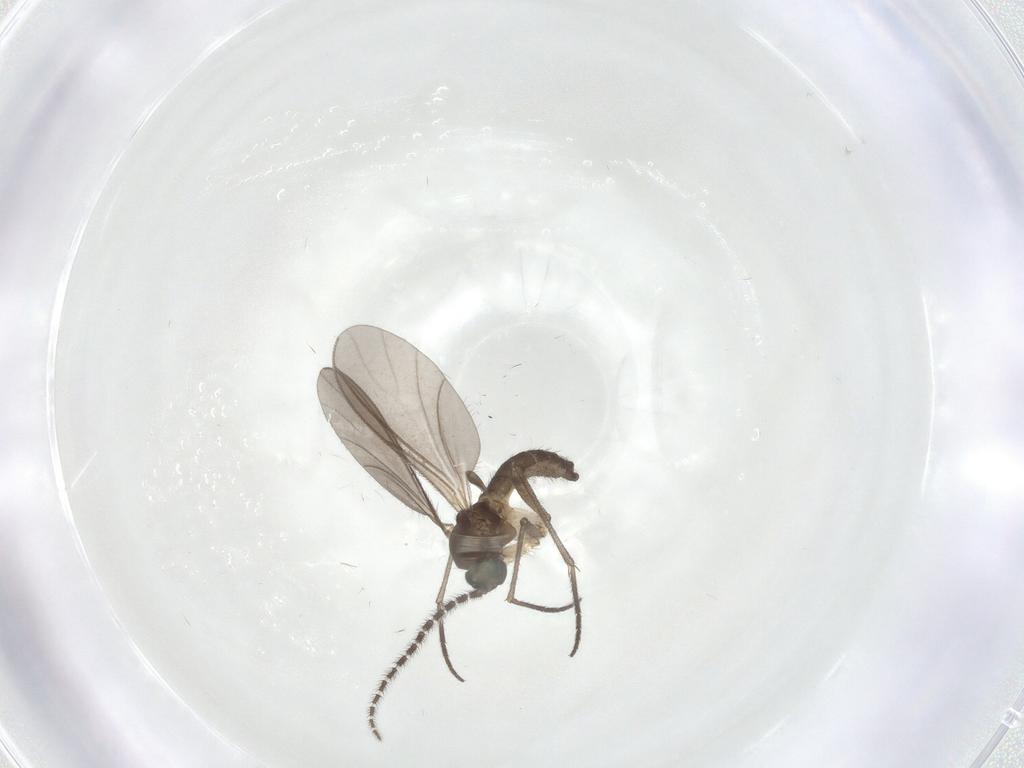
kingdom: Animalia
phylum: Arthropoda
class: Insecta
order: Diptera
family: Sciaridae
